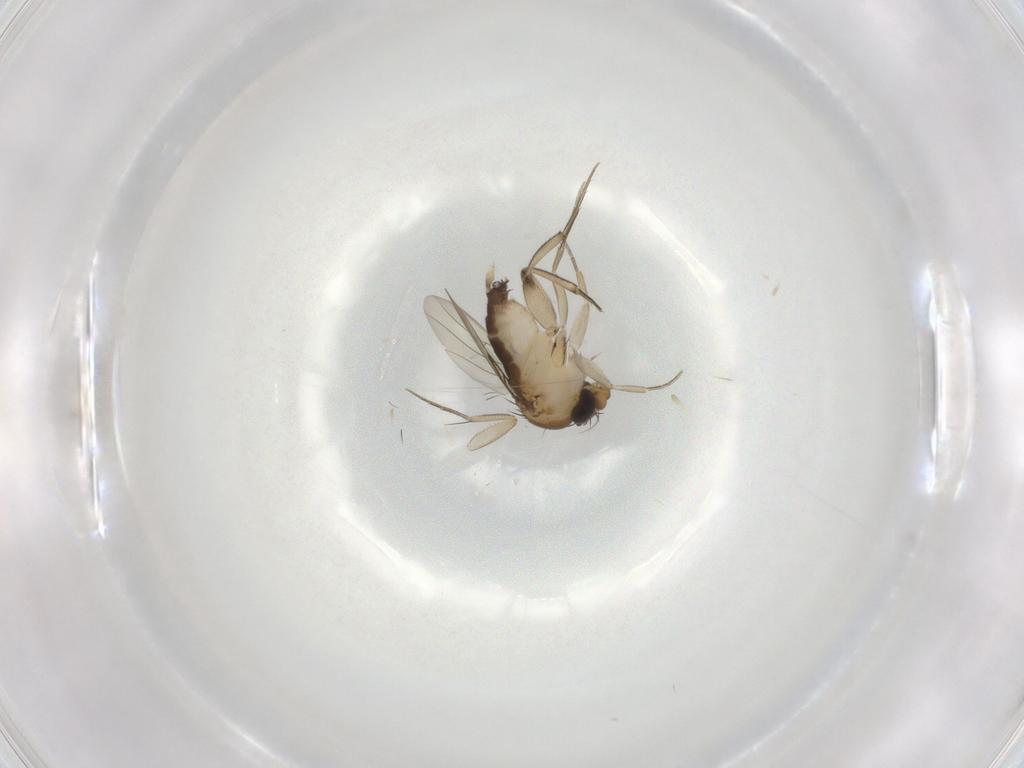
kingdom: Animalia
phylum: Arthropoda
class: Insecta
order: Diptera
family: Phoridae
